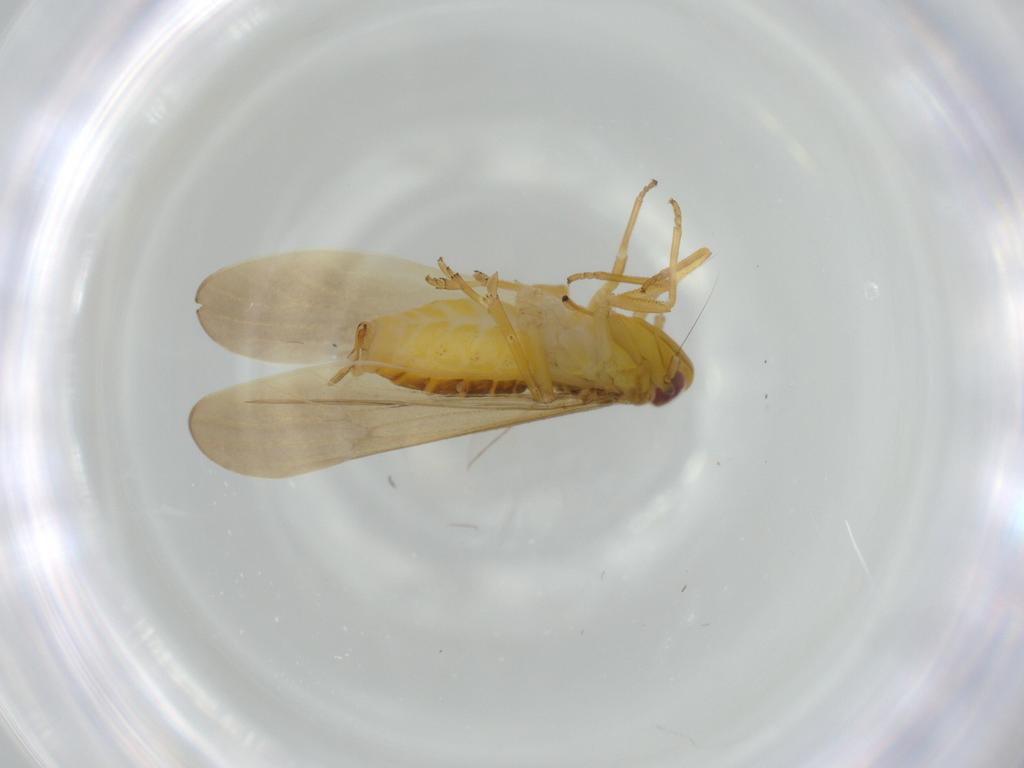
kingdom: Animalia
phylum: Arthropoda
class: Insecta
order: Hemiptera
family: Delphacidae
